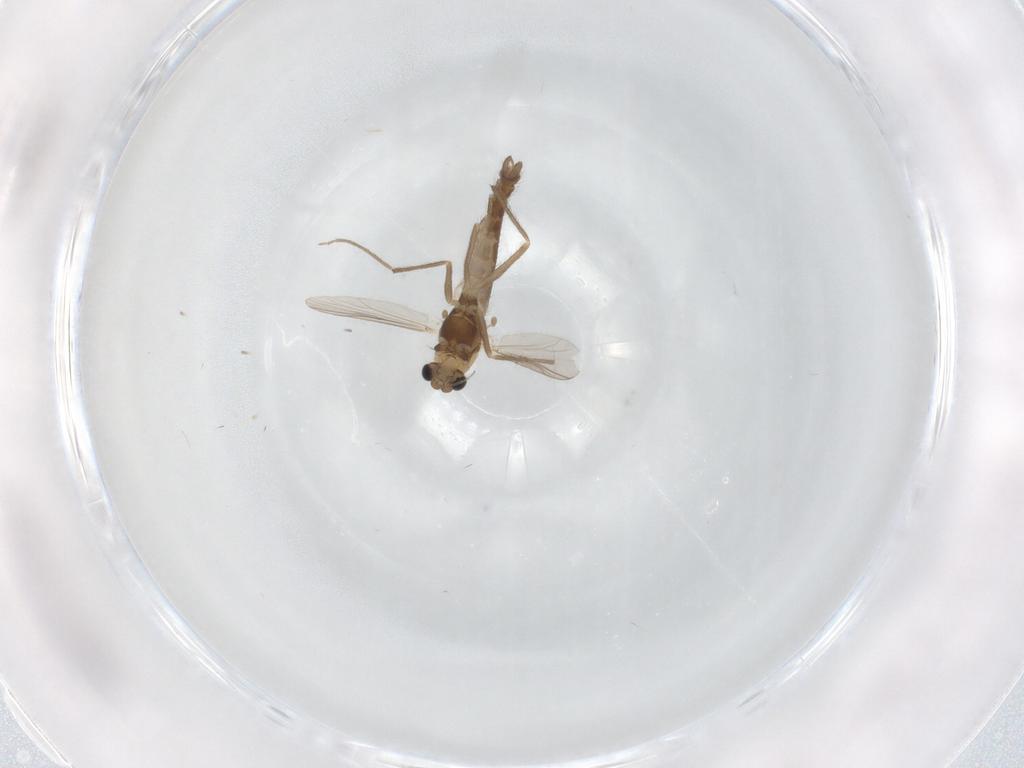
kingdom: Animalia
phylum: Arthropoda
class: Insecta
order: Diptera
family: Chironomidae
